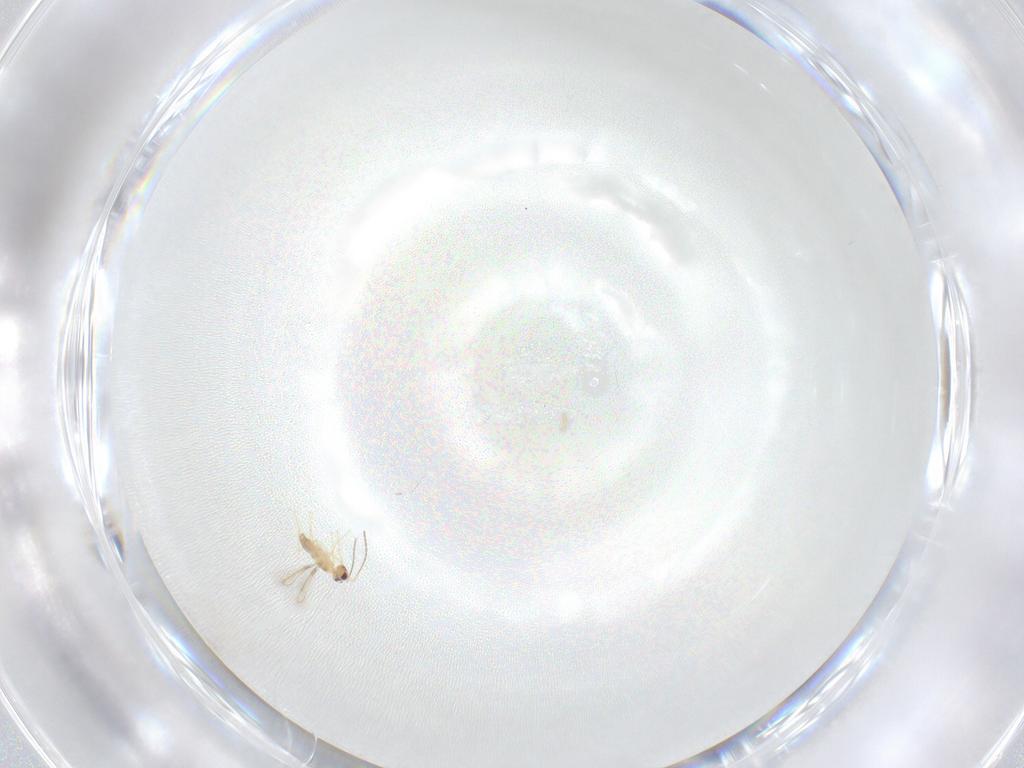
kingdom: Animalia
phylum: Arthropoda
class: Insecta
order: Hymenoptera
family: Mymaridae
